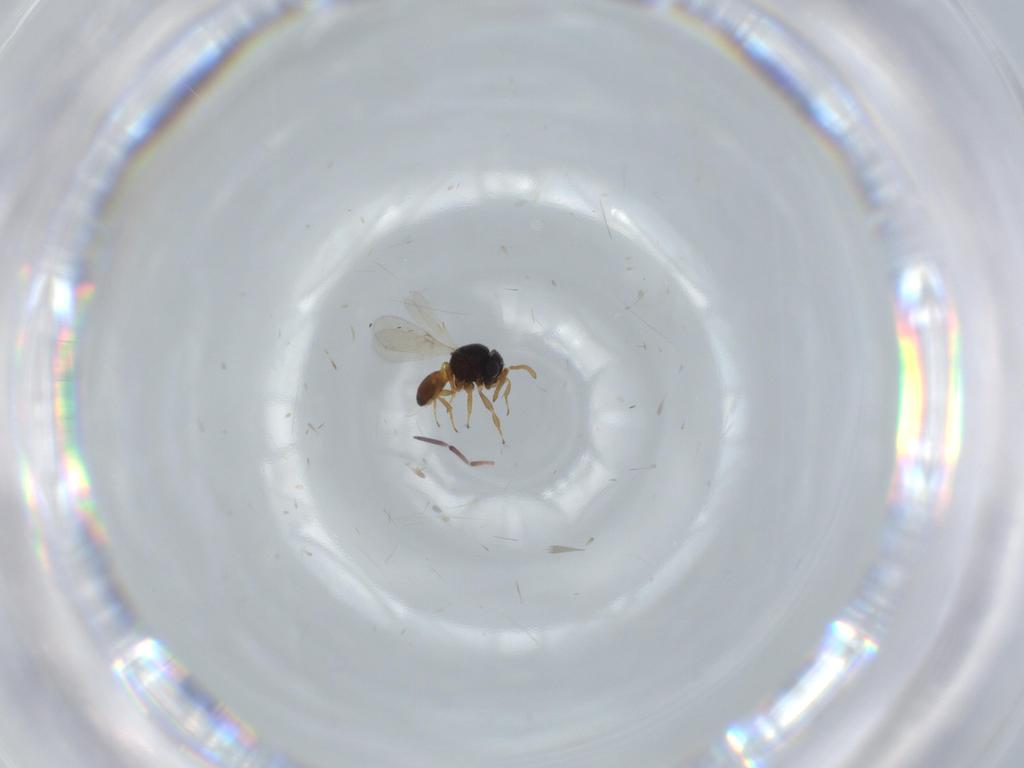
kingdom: Animalia
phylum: Arthropoda
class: Insecta
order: Hymenoptera
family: Scelionidae
